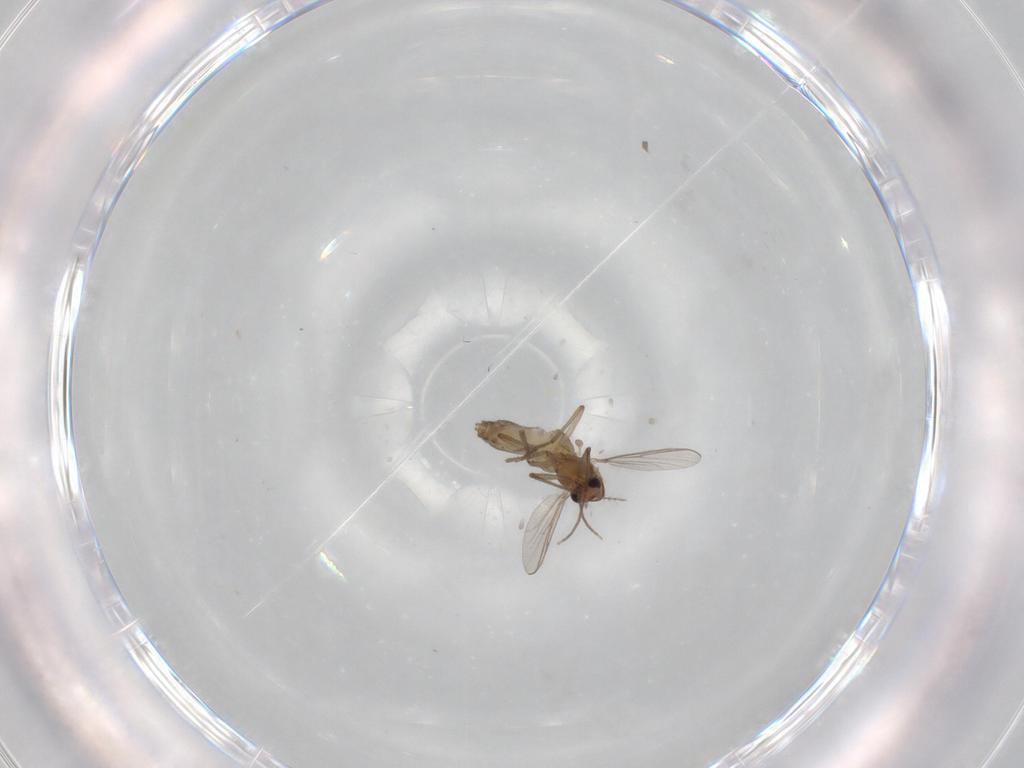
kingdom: Animalia
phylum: Arthropoda
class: Insecta
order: Diptera
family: Chironomidae
